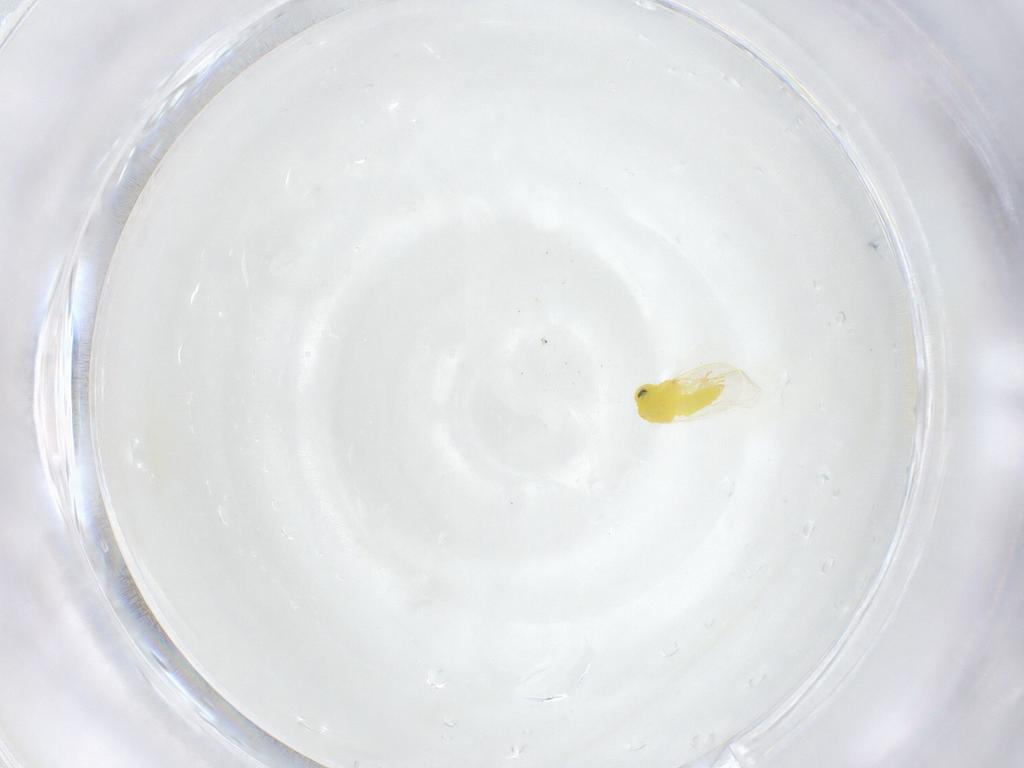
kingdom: Animalia
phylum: Arthropoda
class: Insecta
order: Hemiptera
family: Aleyrodidae
